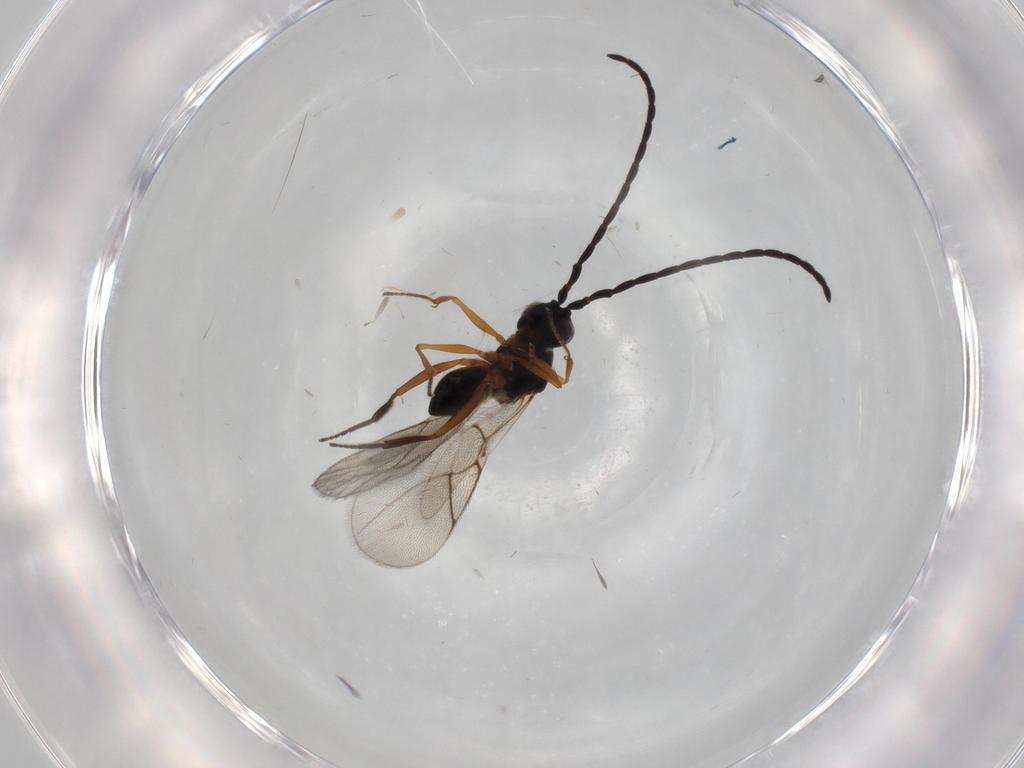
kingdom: Animalia
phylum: Arthropoda
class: Insecta
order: Hymenoptera
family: Figitidae
